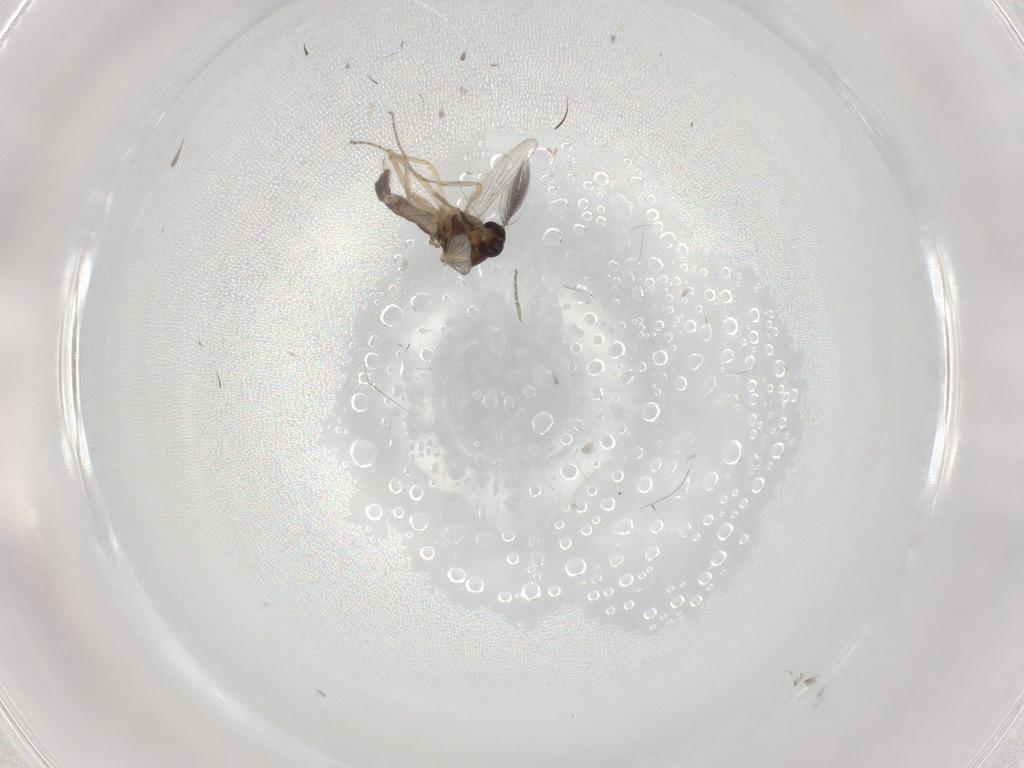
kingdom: Animalia
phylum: Arthropoda
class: Insecta
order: Diptera
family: Ceratopogonidae
